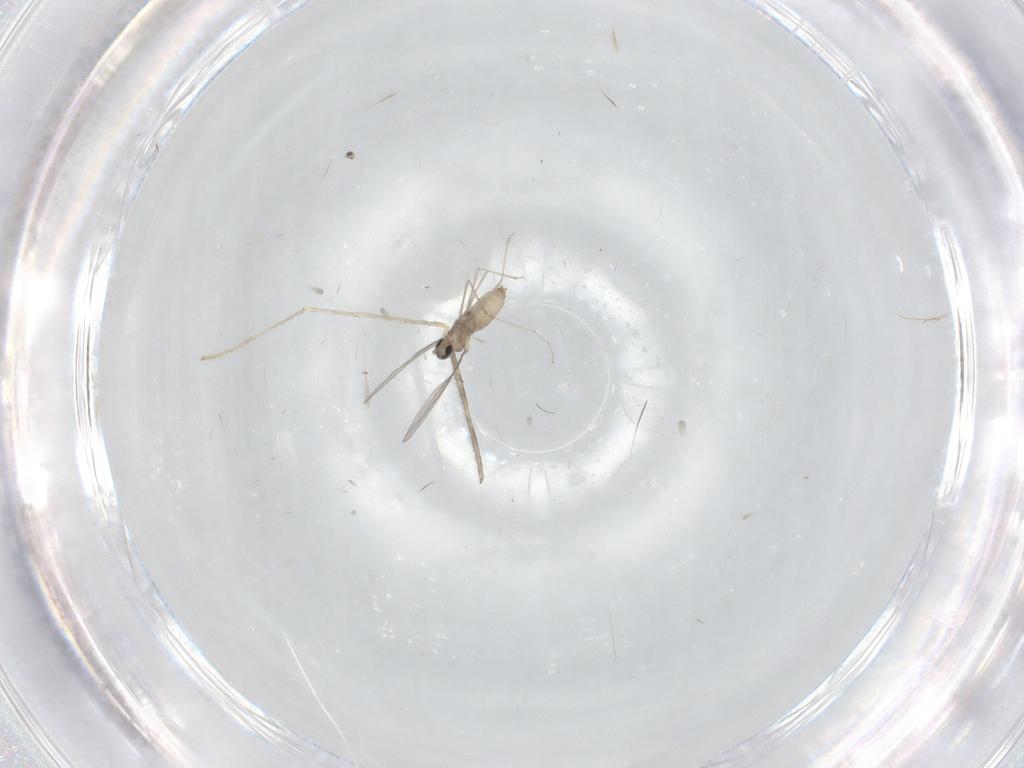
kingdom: Animalia
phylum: Arthropoda
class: Insecta
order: Diptera
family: Cecidomyiidae
